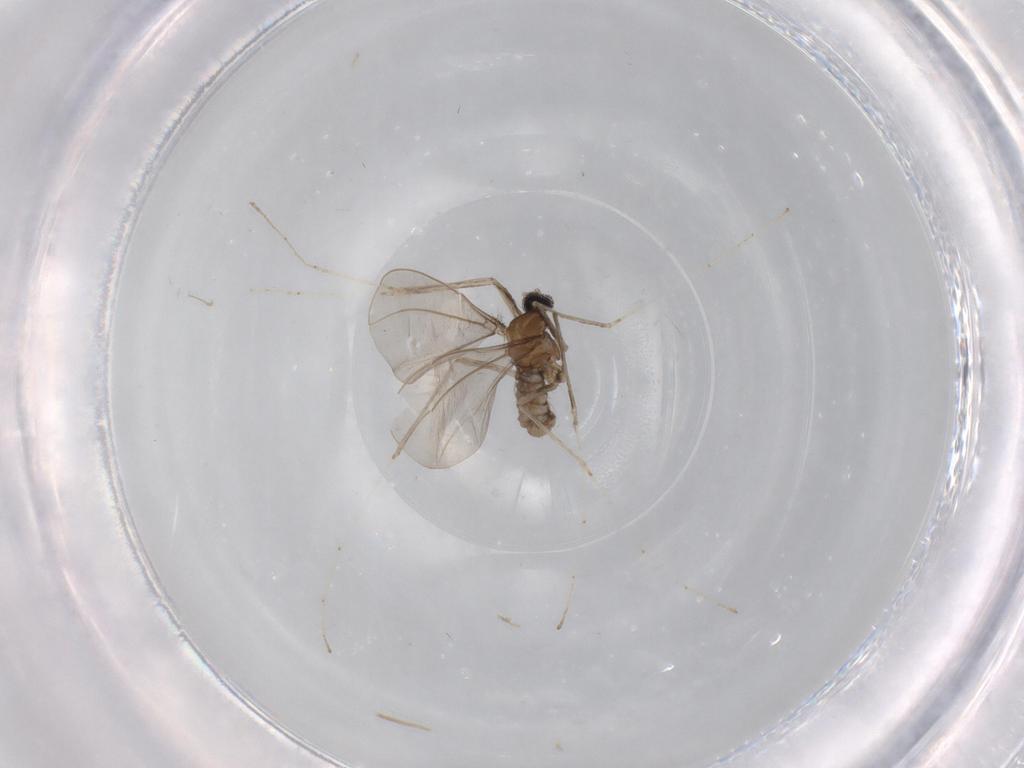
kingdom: Animalia
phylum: Arthropoda
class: Insecta
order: Diptera
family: Cecidomyiidae
